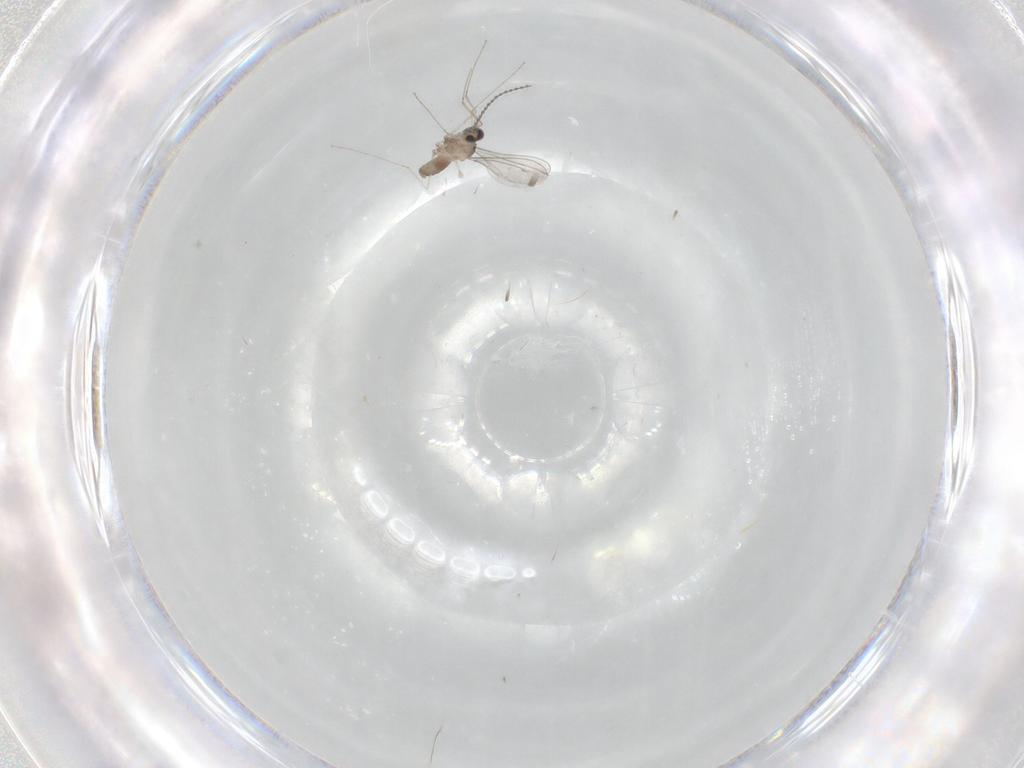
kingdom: Animalia
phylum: Arthropoda
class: Insecta
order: Diptera
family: Cecidomyiidae
